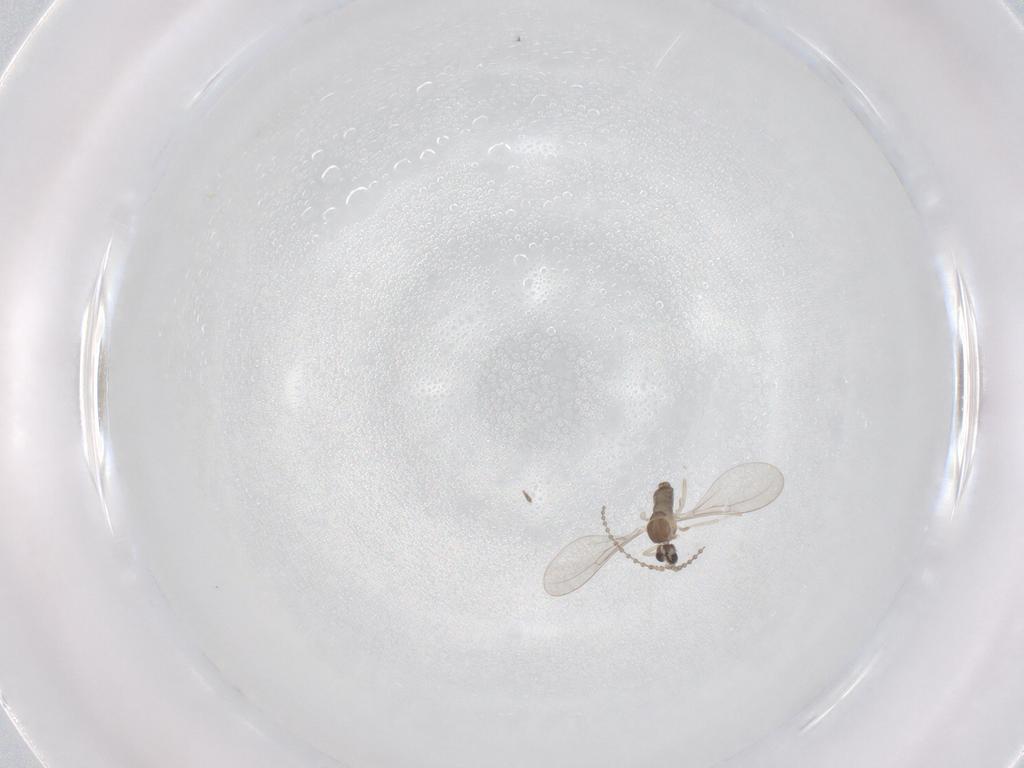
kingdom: Animalia
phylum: Arthropoda
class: Insecta
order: Diptera
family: Cecidomyiidae
